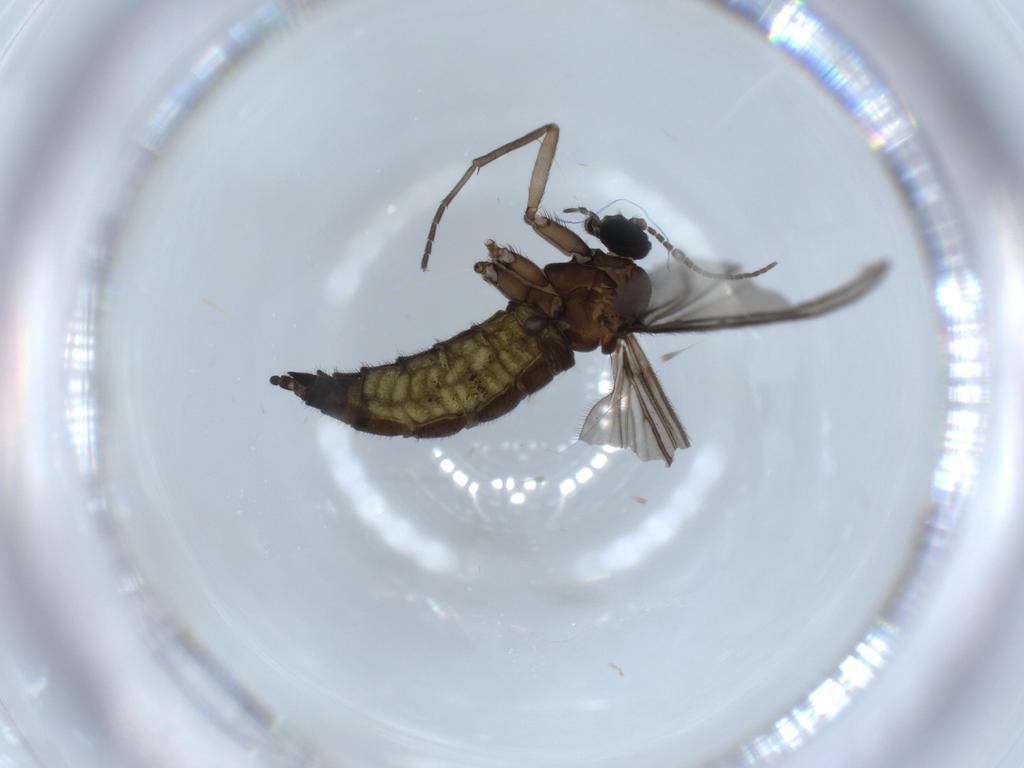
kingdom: Animalia
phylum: Arthropoda
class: Insecta
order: Diptera
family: Sciaridae
